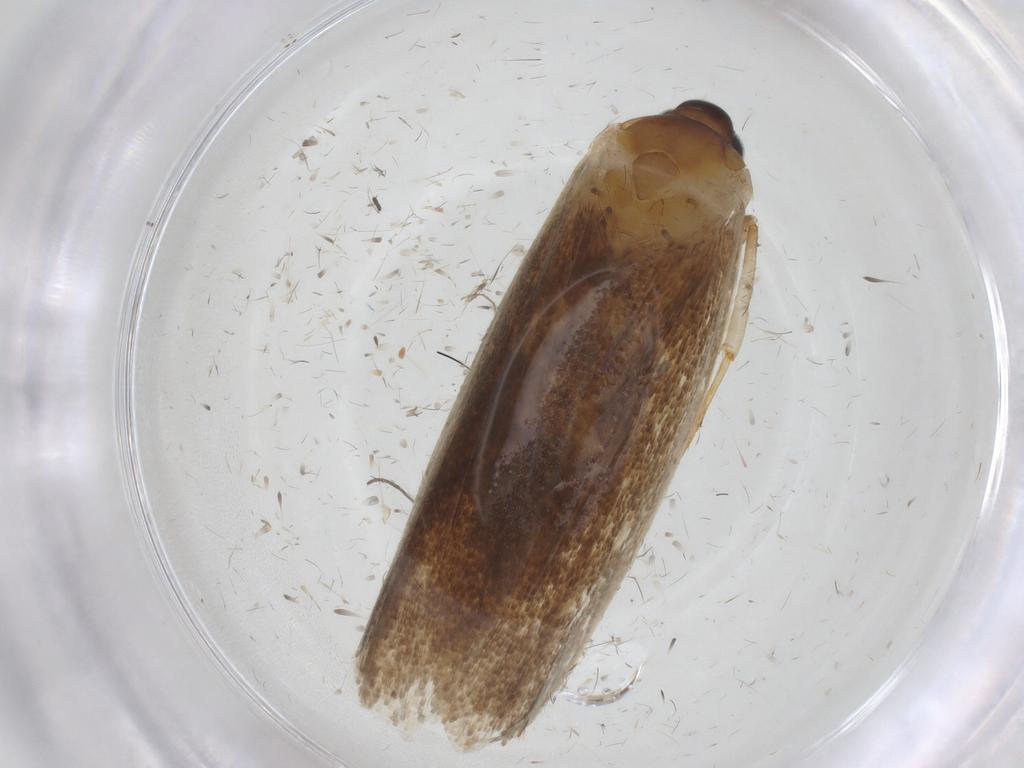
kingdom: Animalia
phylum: Arthropoda
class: Insecta
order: Lepidoptera
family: Oecophoridae
